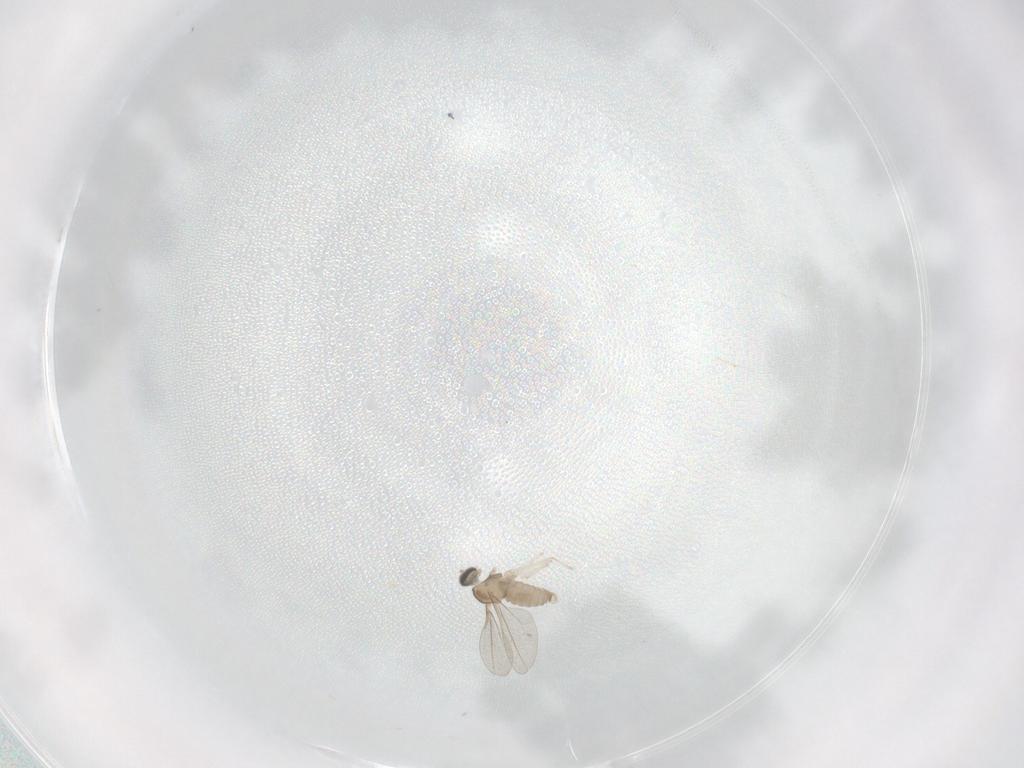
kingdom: Animalia
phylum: Arthropoda
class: Insecta
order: Diptera
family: Cecidomyiidae
